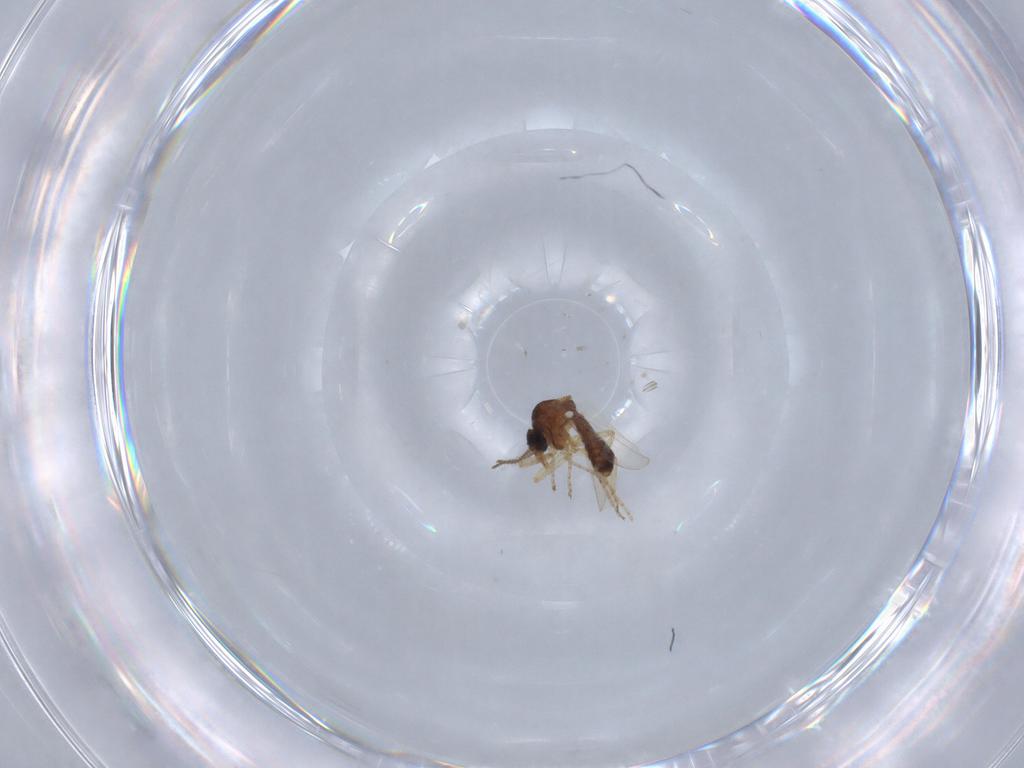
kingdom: Animalia
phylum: Arthropoda
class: Insecta
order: Diptera
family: Ceratopogonidae
